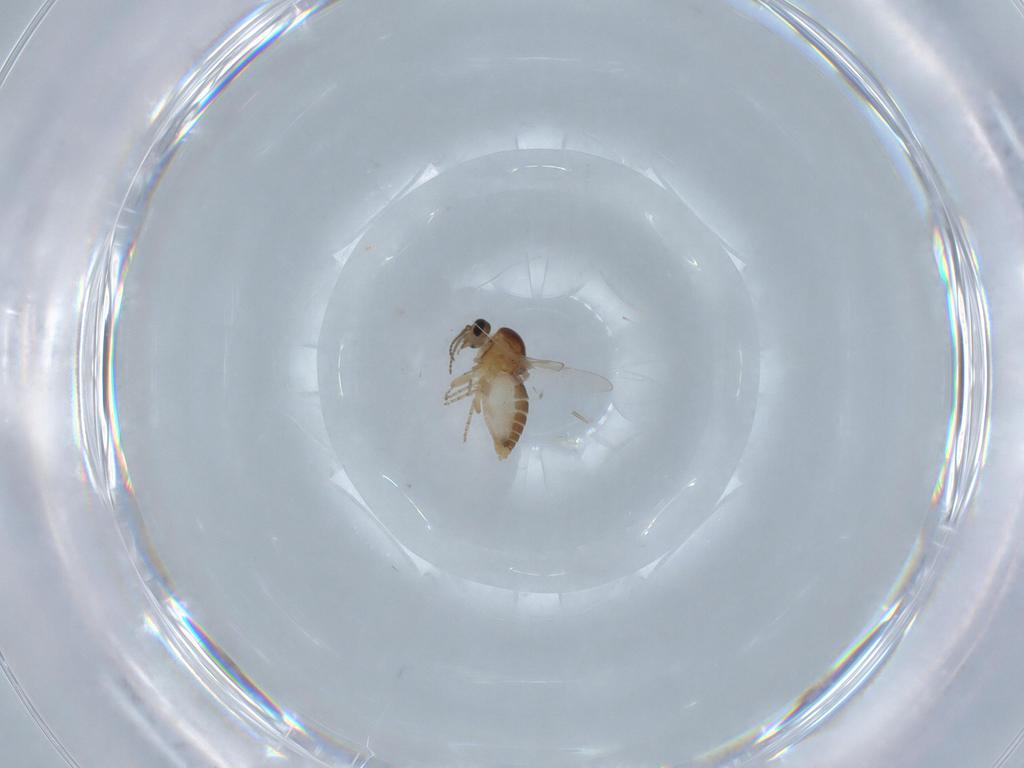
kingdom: Animalia
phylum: Arthropoda
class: Insecta
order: Diptera
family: Ceratopogonidae
